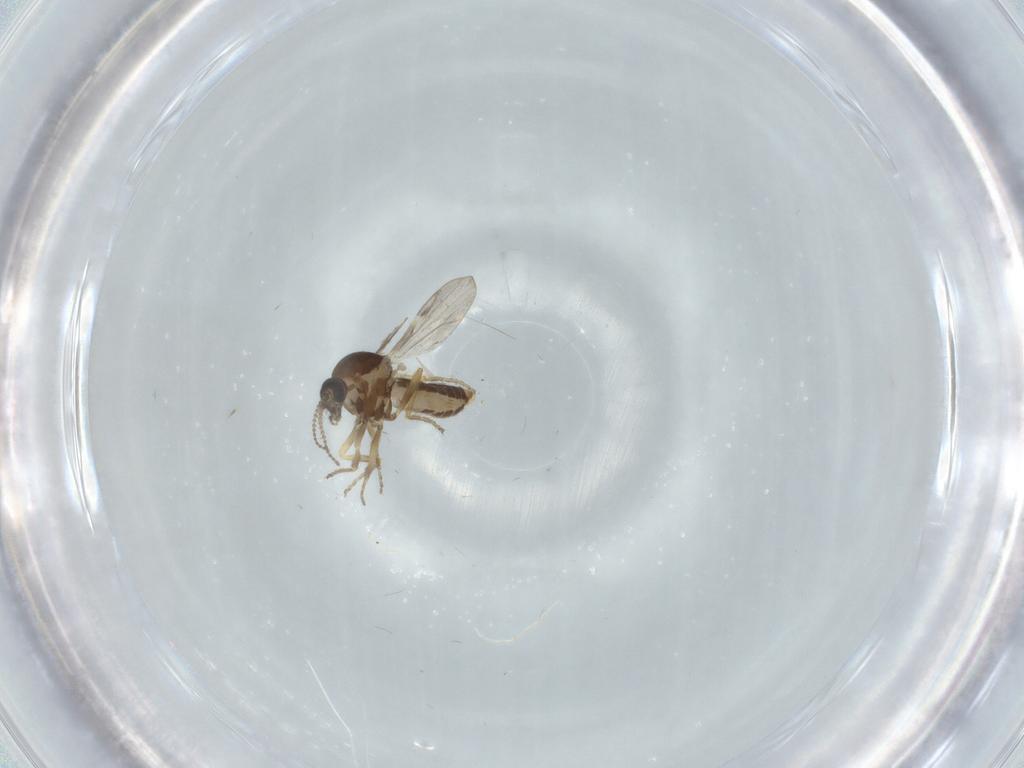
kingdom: Animalia
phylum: Arthropoda
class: Insecta
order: Diptera
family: Ceratopogonidae
